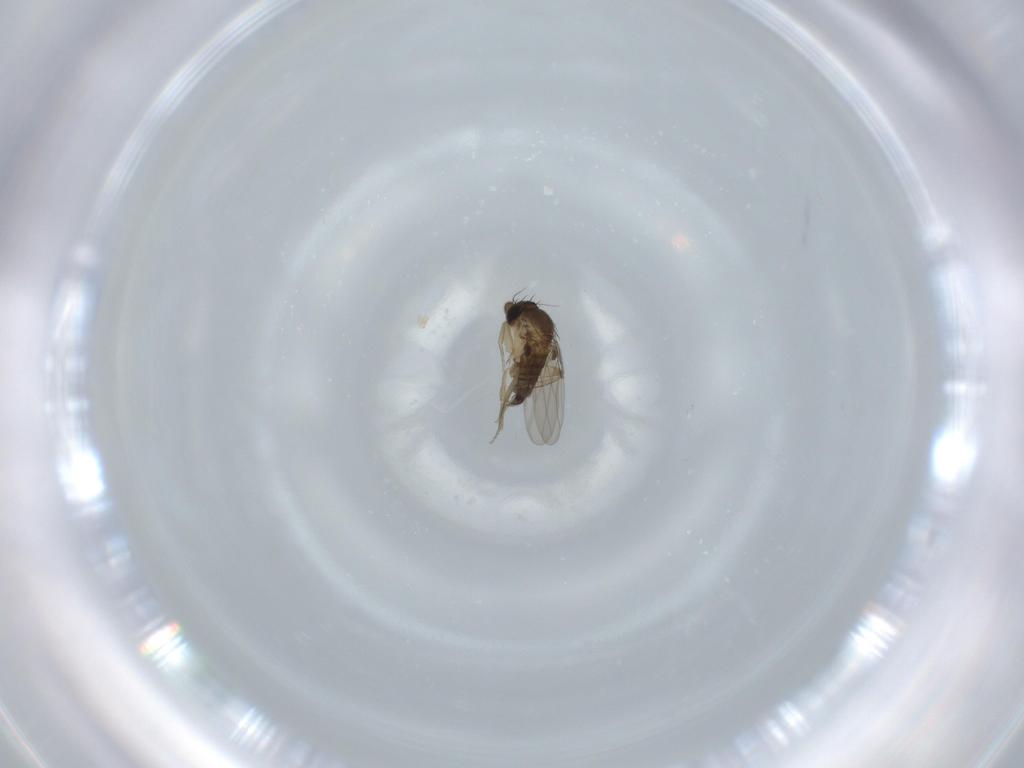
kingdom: Animalia
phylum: Arthropoda
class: Insecta
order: Diptera
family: Phoridae
